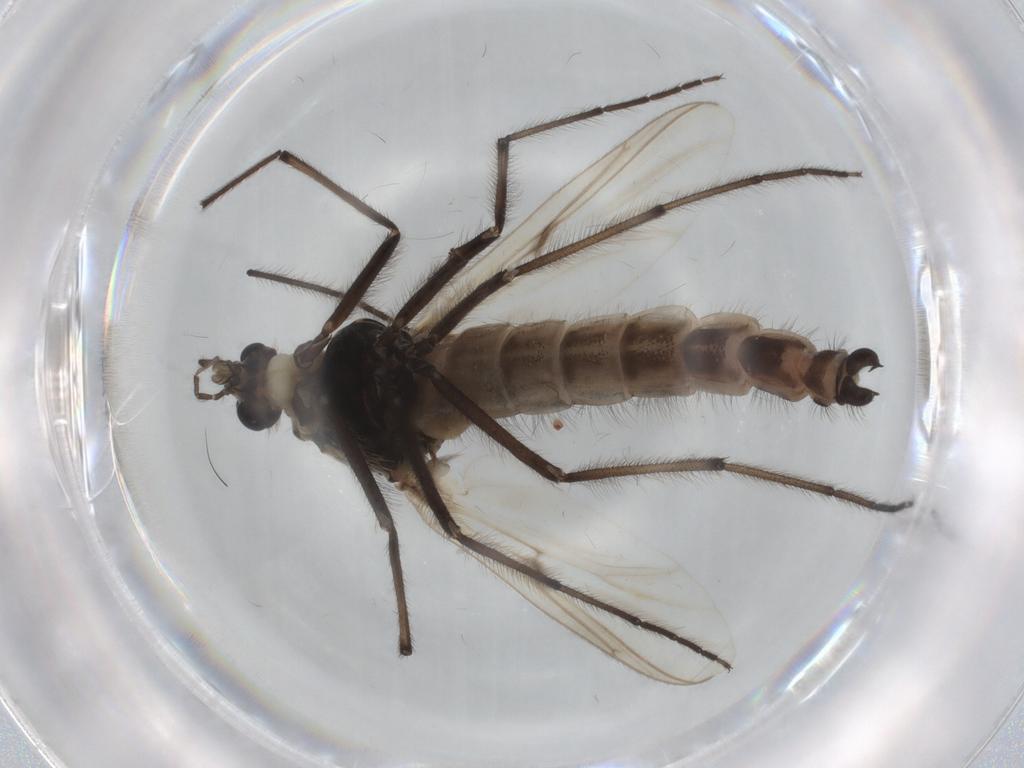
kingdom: Animalia
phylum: Arthropoda
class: Insecta
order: Diptera
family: Chironomidae
